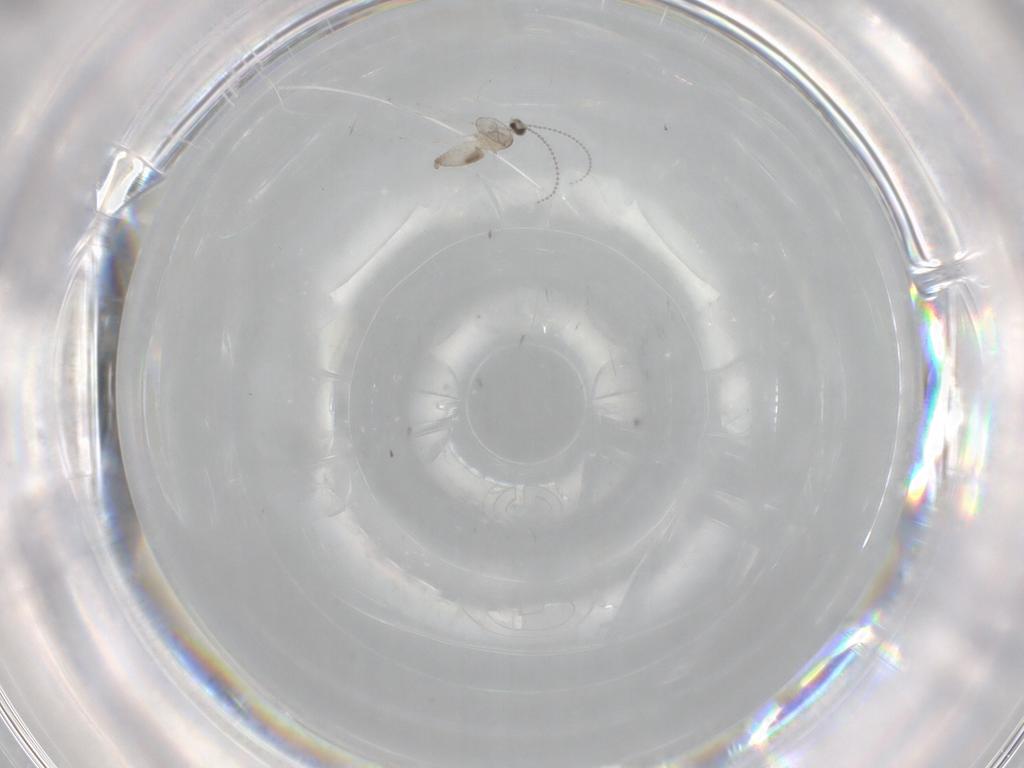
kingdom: Animalia
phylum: Arthropoda
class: Insecta
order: Diptera
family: Cecidomyiidae
